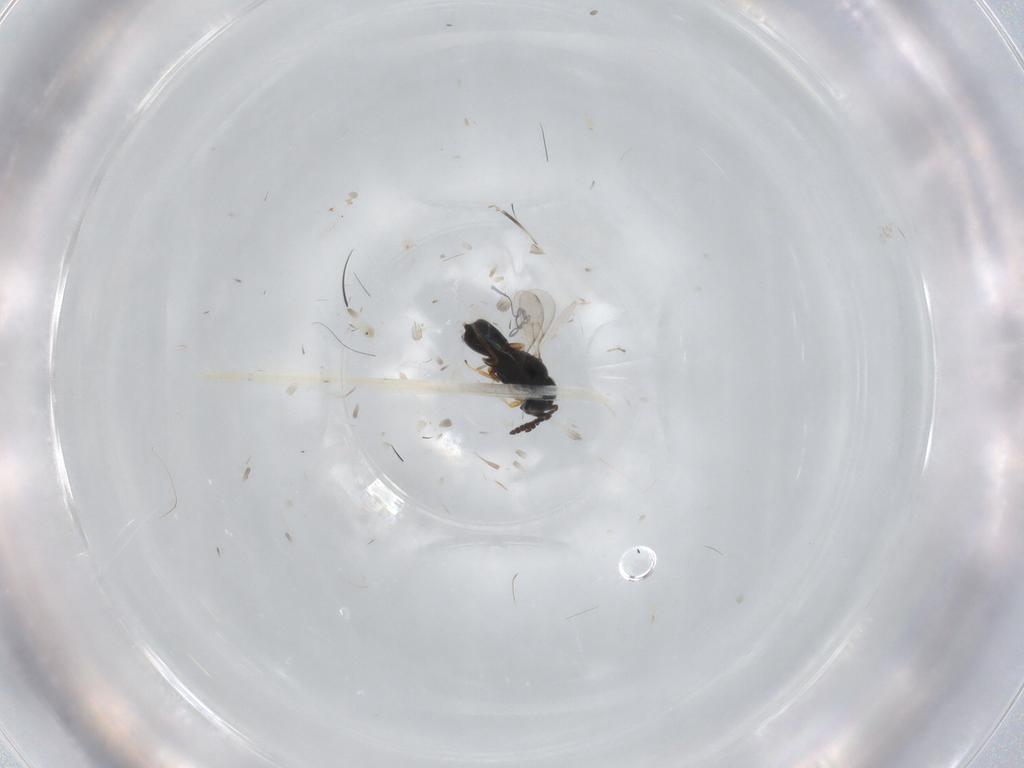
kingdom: Animalia
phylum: Arthropoda
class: Insecta
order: Hymenoptera
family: Scelionidae
